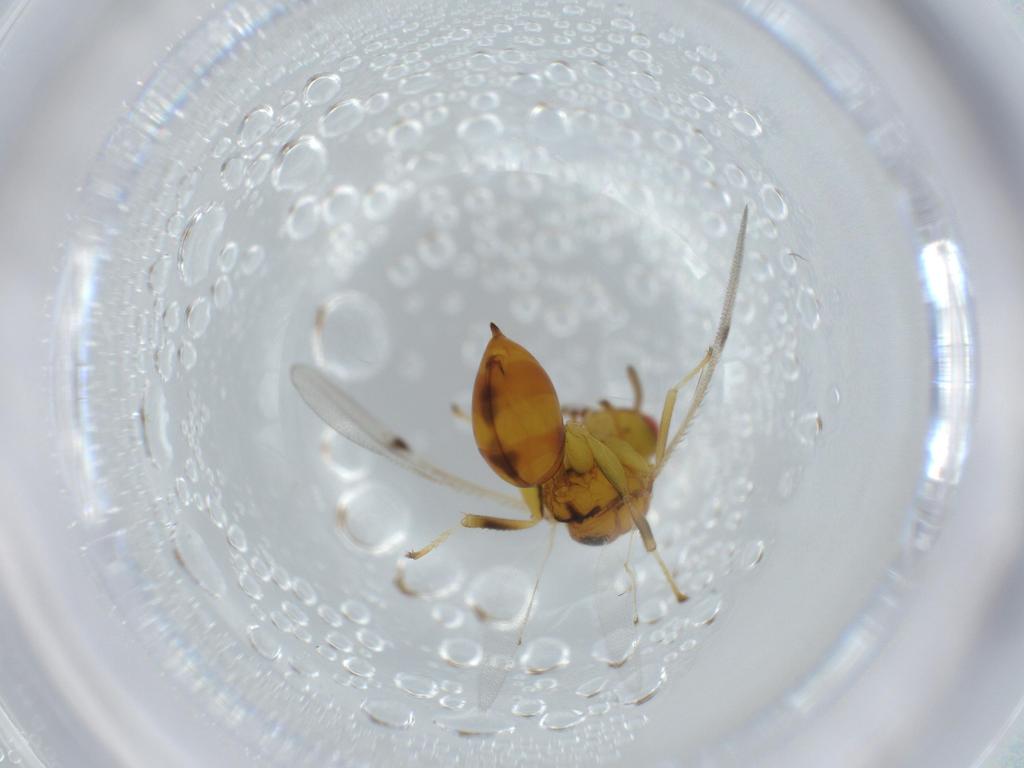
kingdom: Animalia
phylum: Arthropoda
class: Insecta
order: Hymenoptera
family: Eurytomidae
